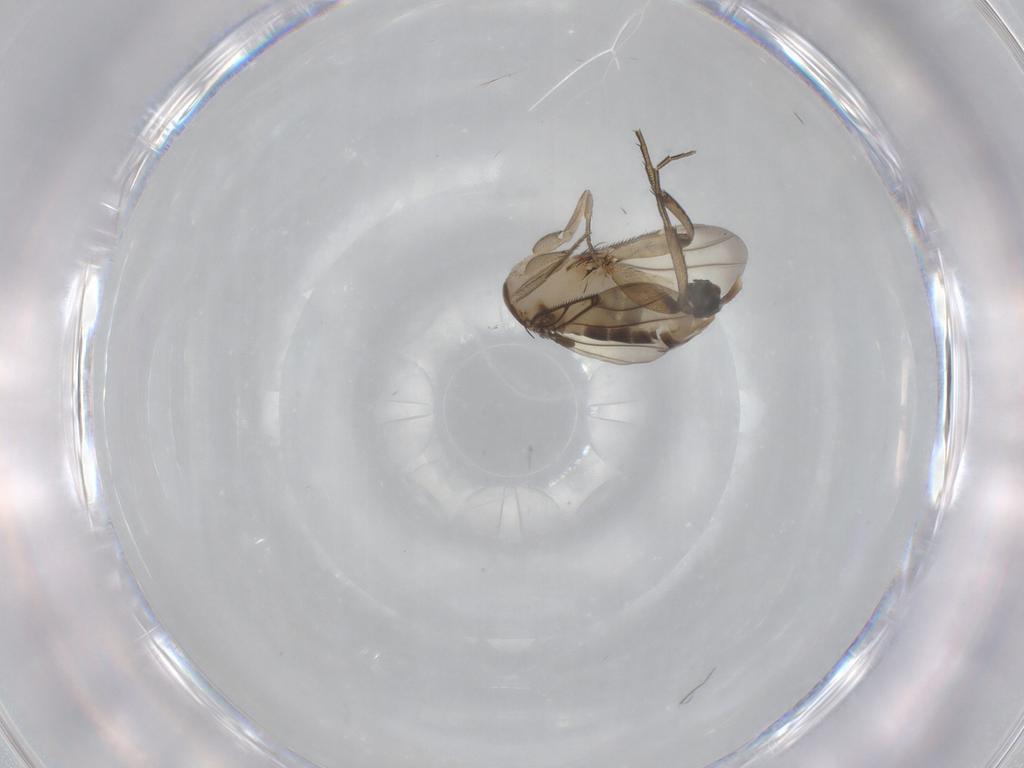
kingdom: Animalia
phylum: Arthropoda
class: Insecta
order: Diptera
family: Phoridae
